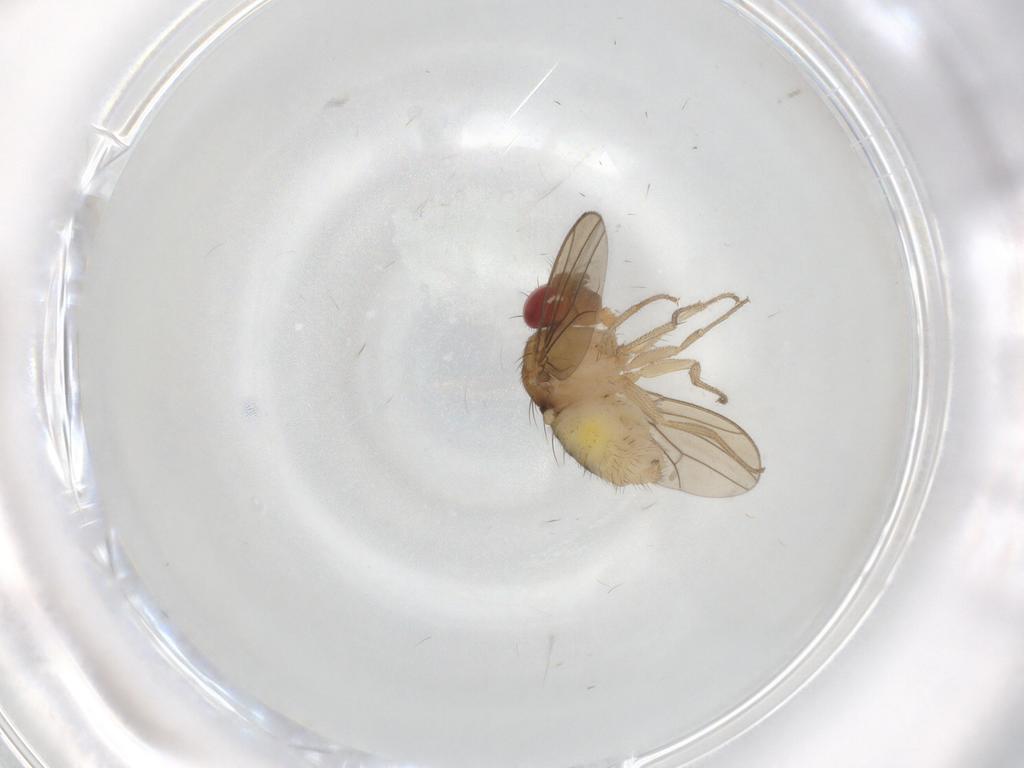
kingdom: Animalia
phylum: Arthropoda
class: Insecta
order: Diptera
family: Drosophilidae
